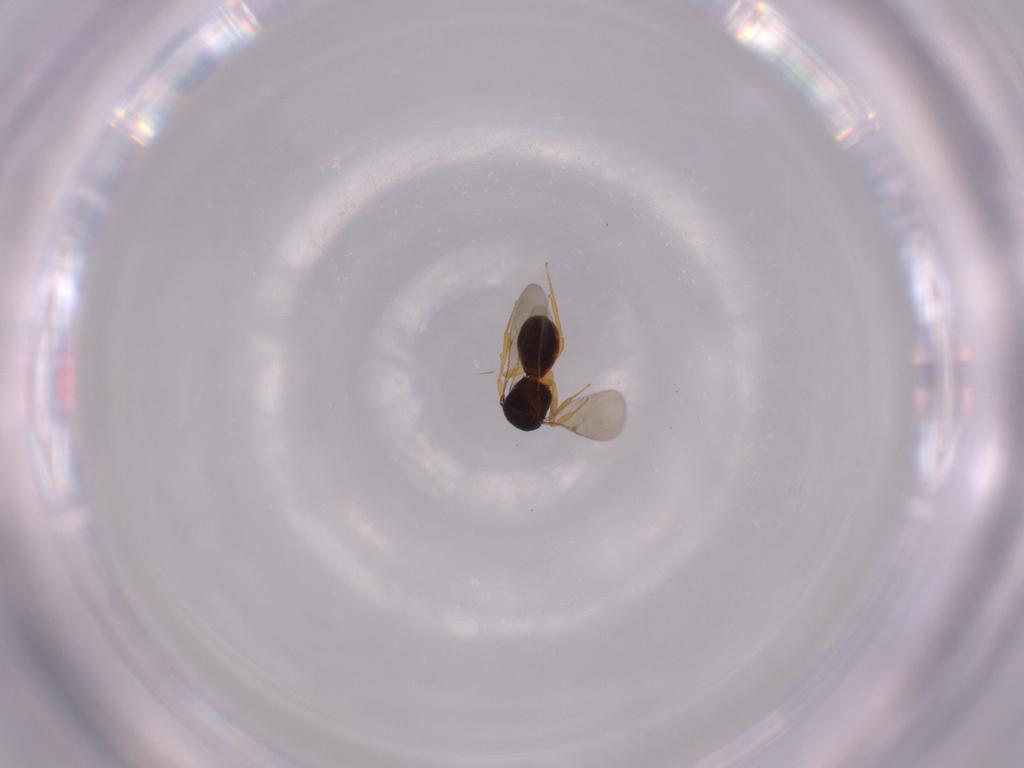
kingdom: Animalia
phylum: Arthropoda
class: Insecta
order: Hymenoptera
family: Scelionidae
